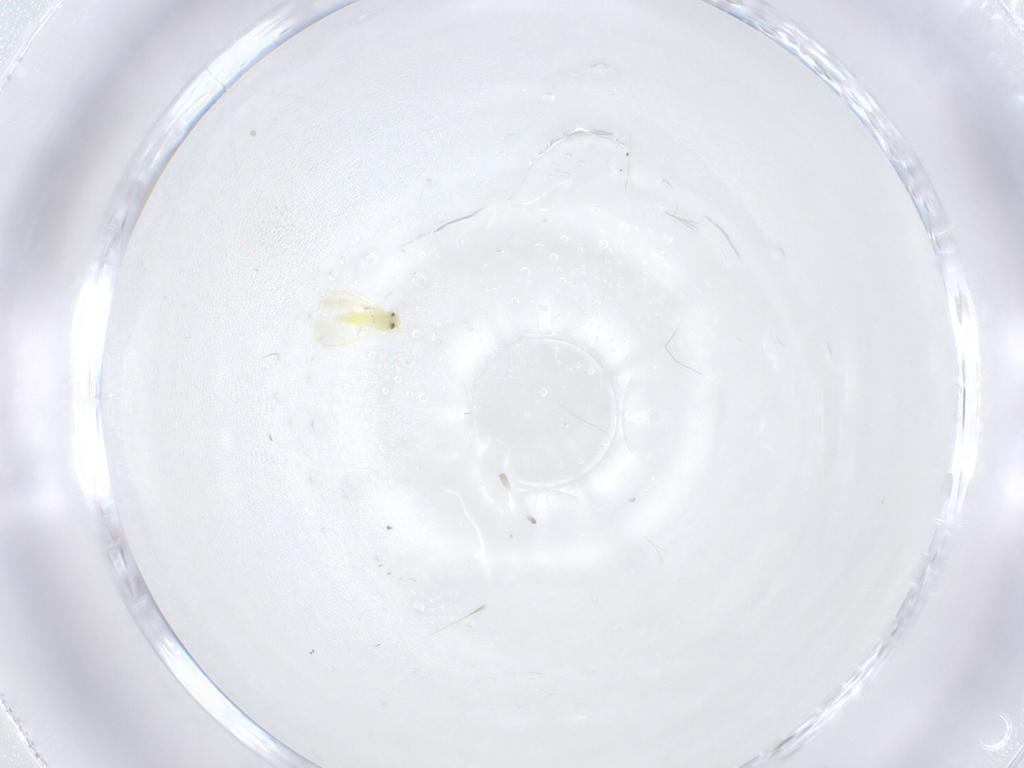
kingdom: Animalia
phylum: Arthropoda
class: Insecta
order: Hemiptera
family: Aleyrodidae
